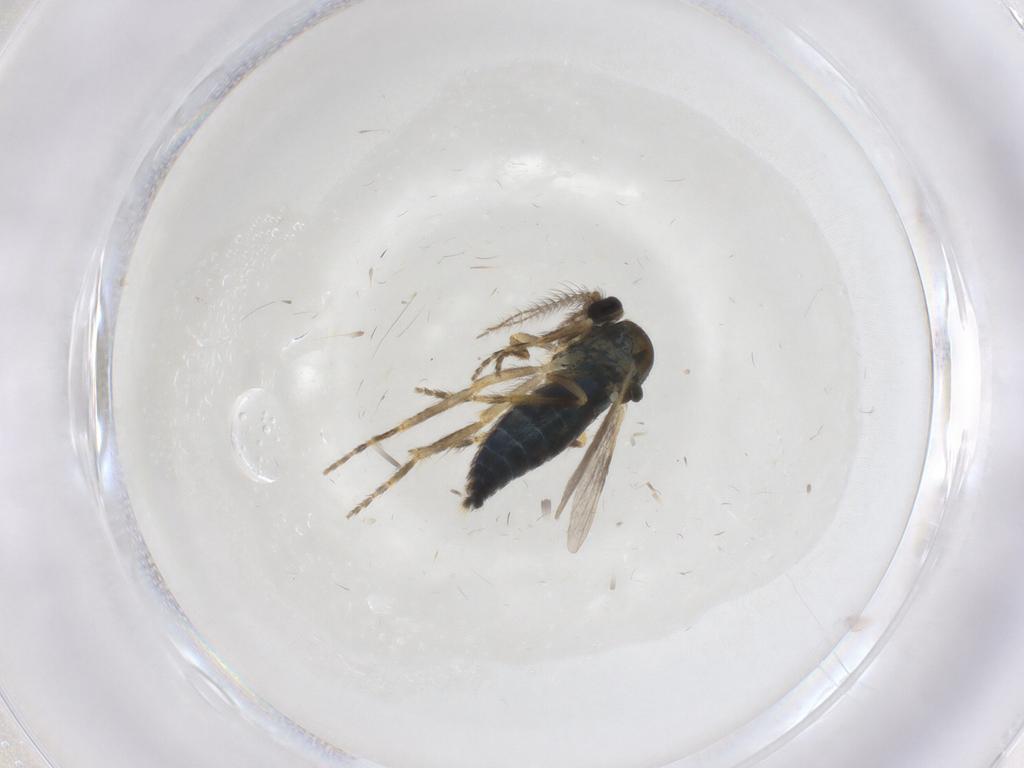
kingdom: Animalia
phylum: Arthropoda
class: Insecta
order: Diptera
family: Ceratopogonidae
